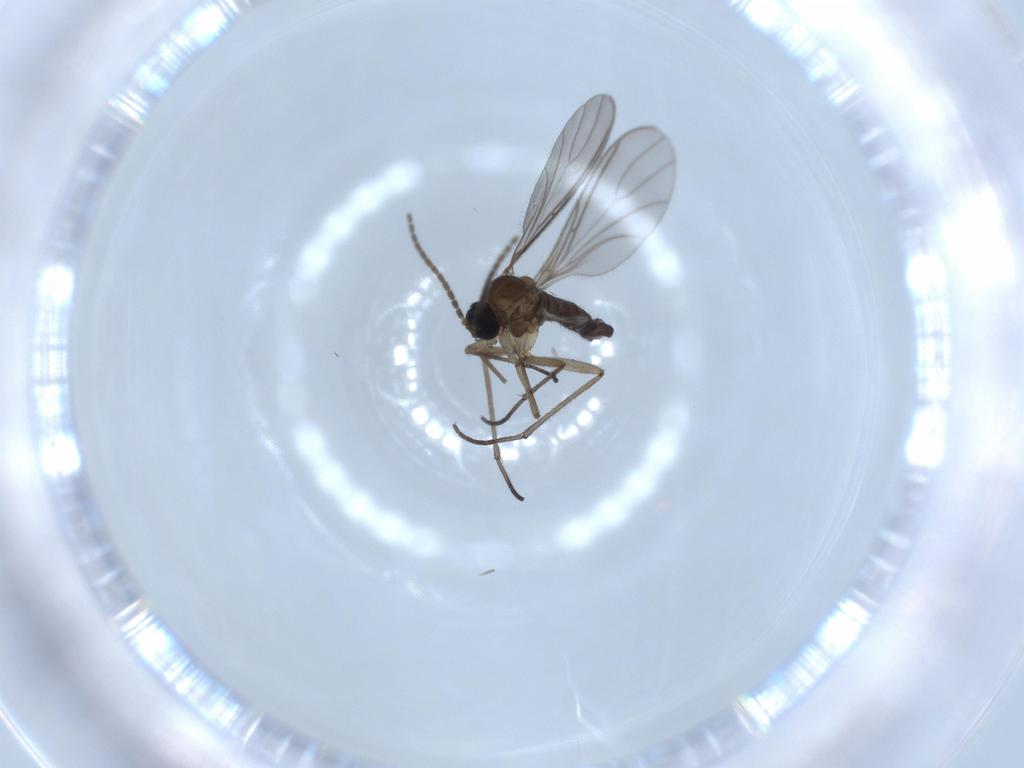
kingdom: Animalia
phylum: Arthropoda
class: Insecta
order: Diptera
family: Sciaridae
